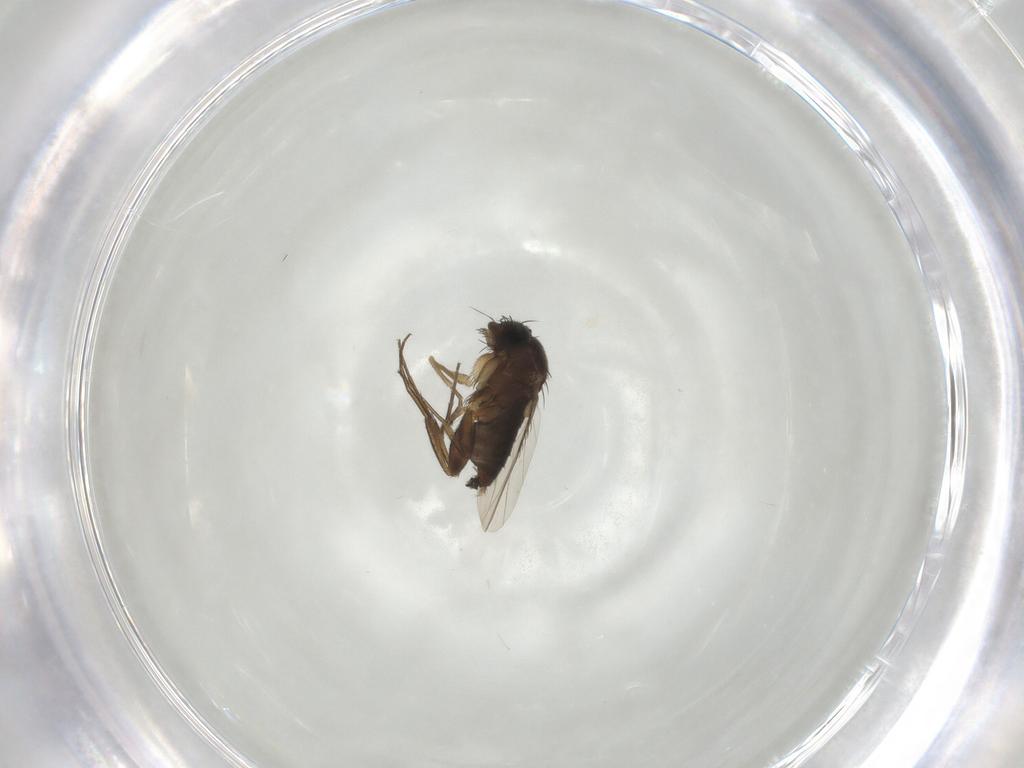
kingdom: Animalia
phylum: Arthropoda
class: Insecta
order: Diptera
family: Phoridae
